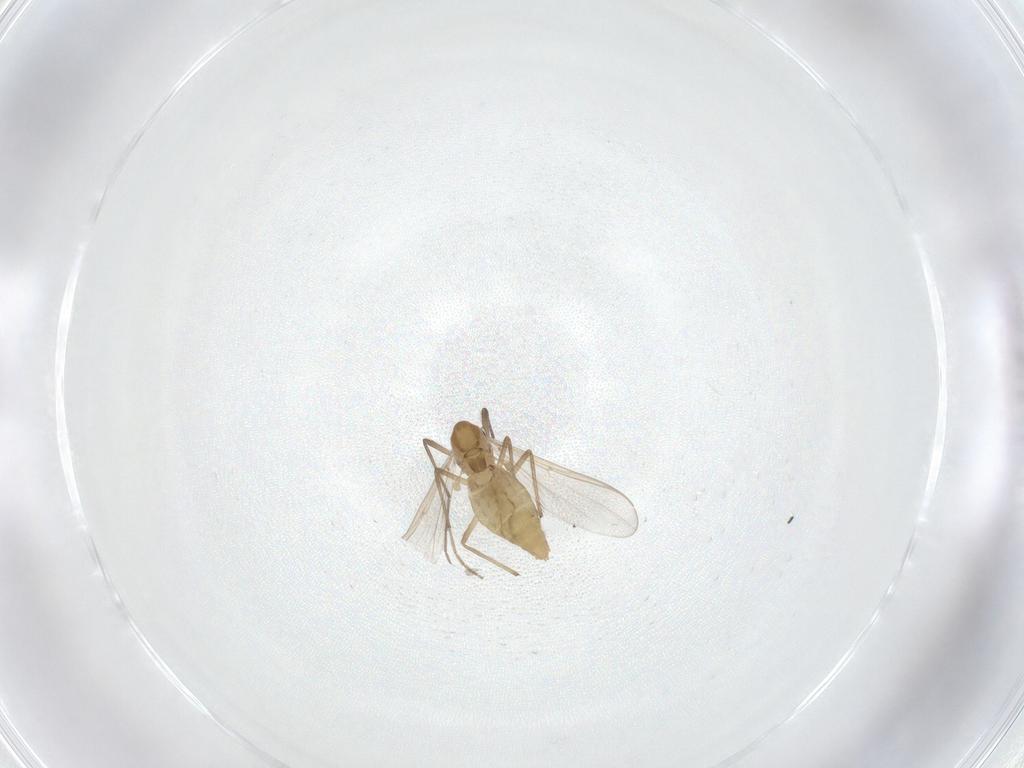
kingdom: Animalia
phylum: Arthropoda
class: Insecta
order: Diptera
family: Chironomidae
